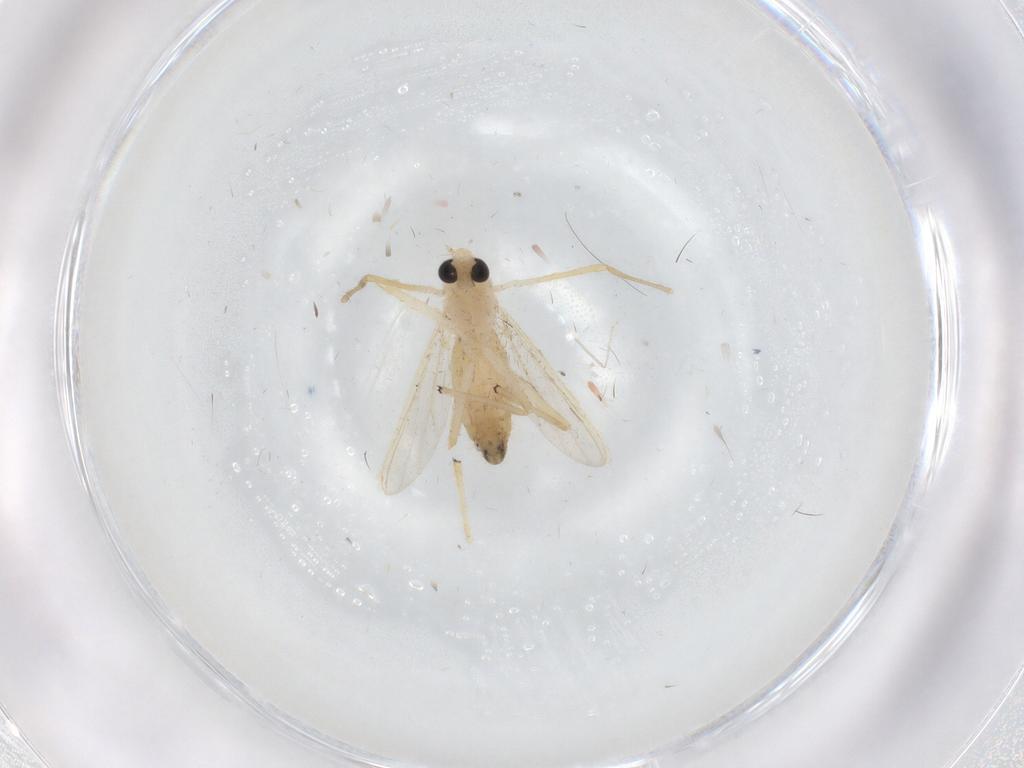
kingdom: Animalia
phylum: Arthropoda
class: Insecta
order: Diptera
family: Chironomidae
